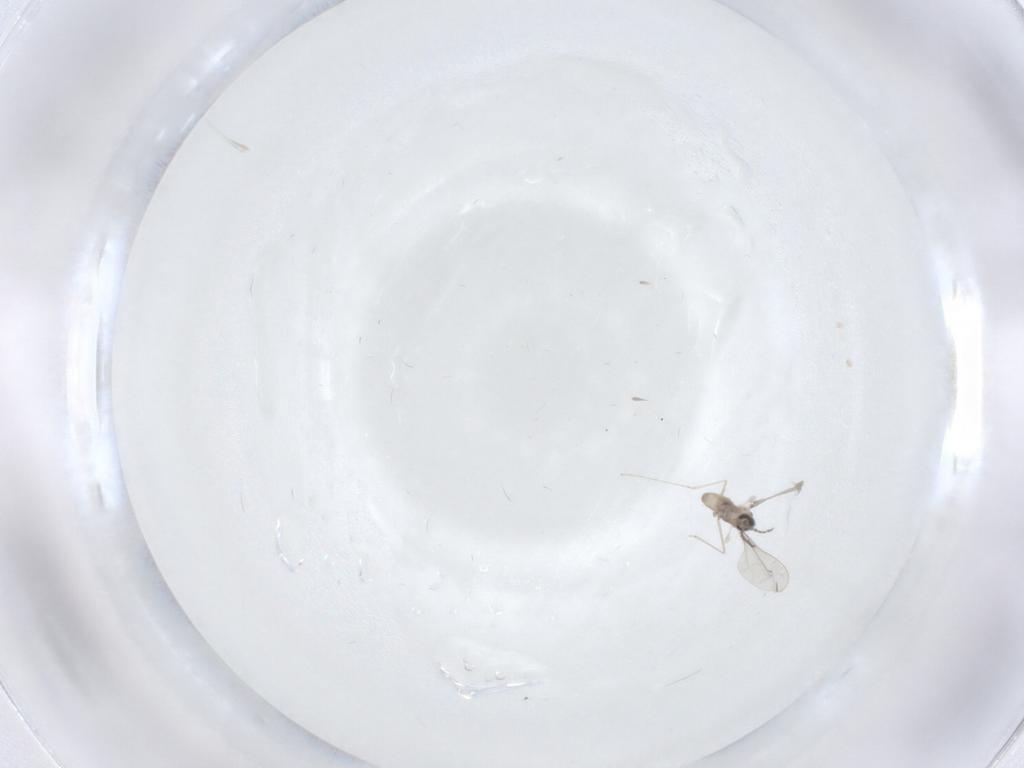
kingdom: Animalia
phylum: Arthropoda
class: Insecta
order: Diptera
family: Cecidomyiidae
